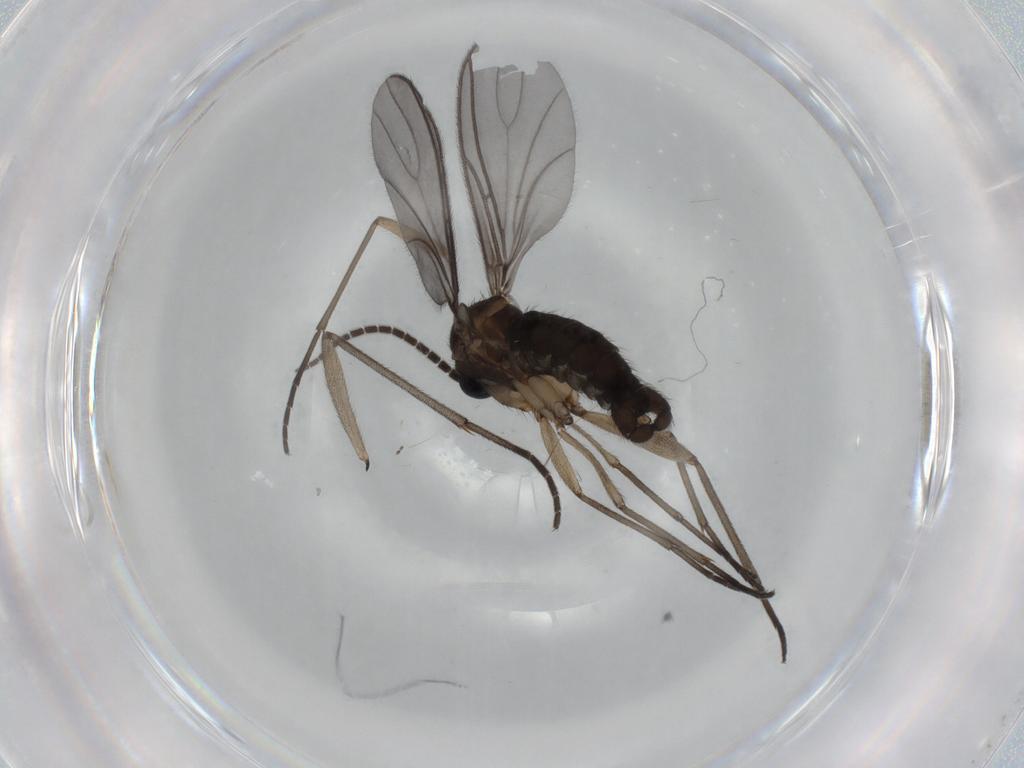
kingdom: Animalia
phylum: Arthropoda
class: Insecta
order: Diptera
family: Sciaridae
